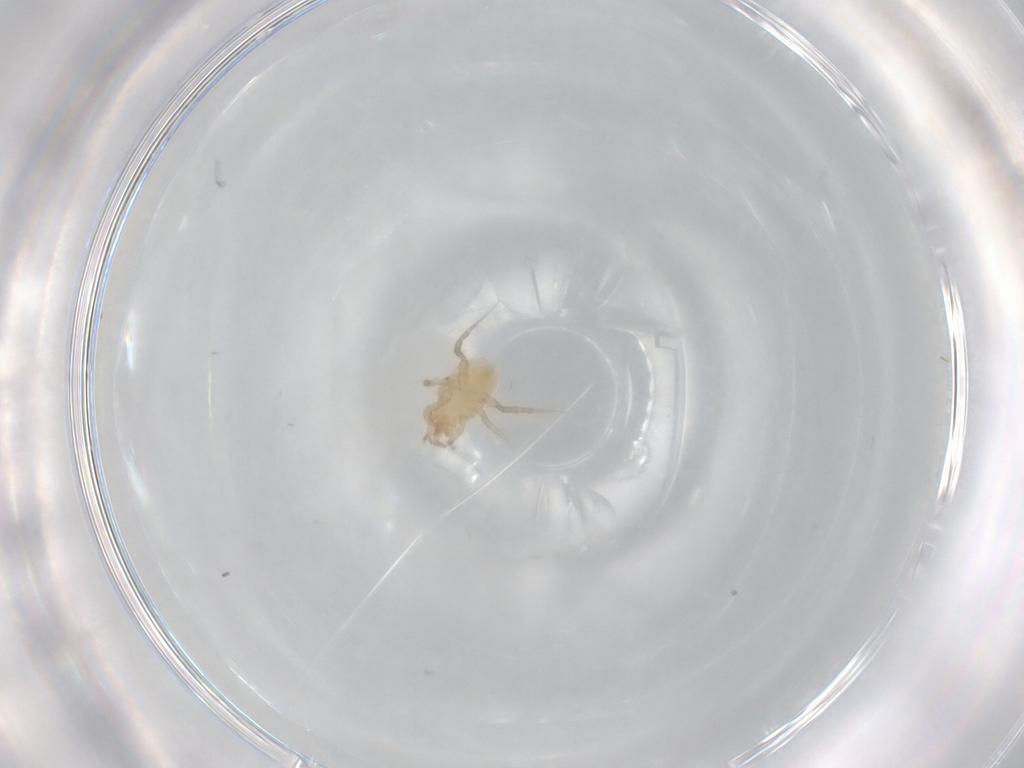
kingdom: Animalia
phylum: Arthropoda
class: Arachnida
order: Mesostigmata
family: Ascidae
